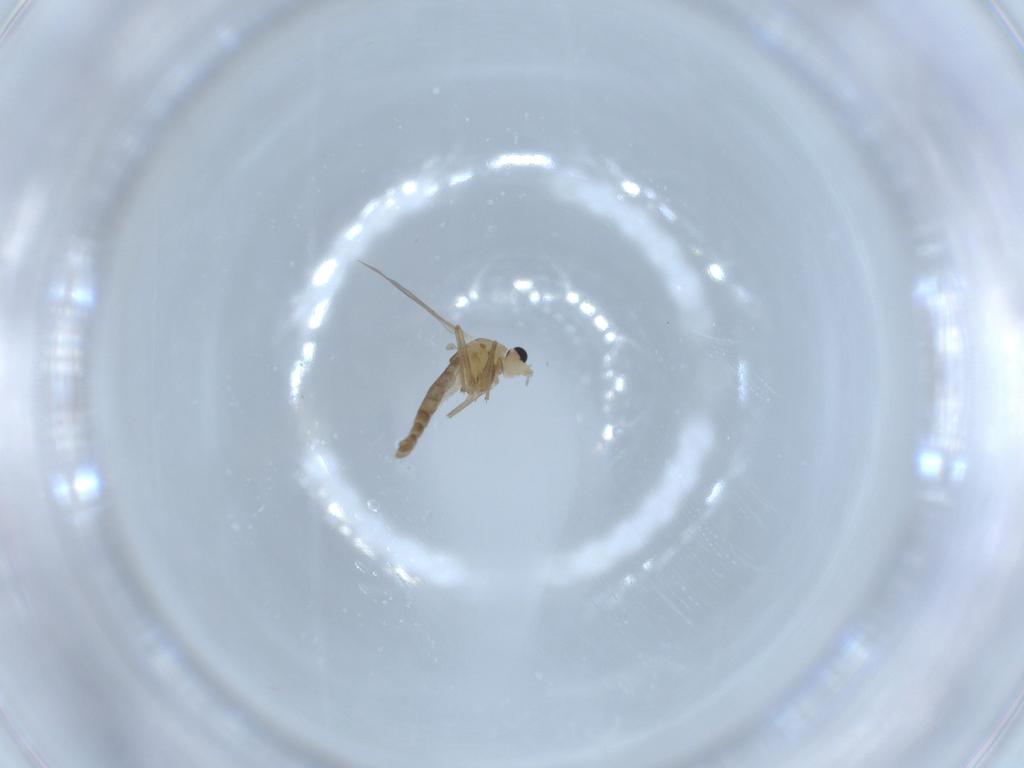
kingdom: Animalia
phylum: Arthropoda
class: Insecta
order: Diptera
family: Chironomidae
